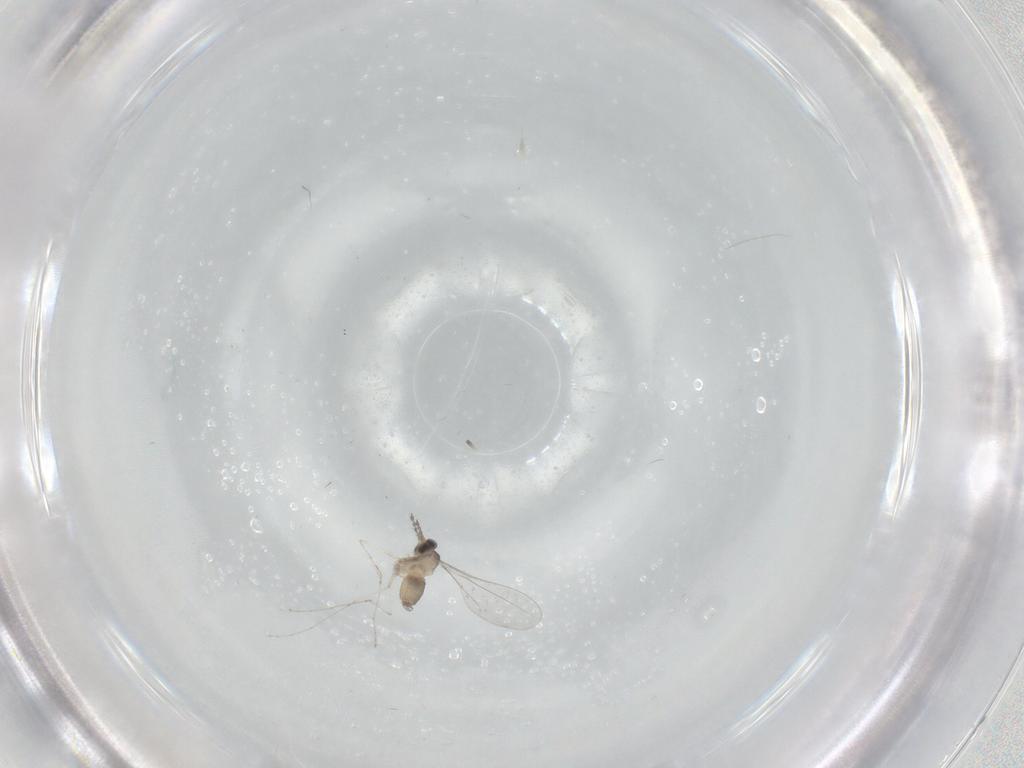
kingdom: Animalia
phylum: Arthropoda
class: Insecta
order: Diptera
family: Cecidomyiidae
